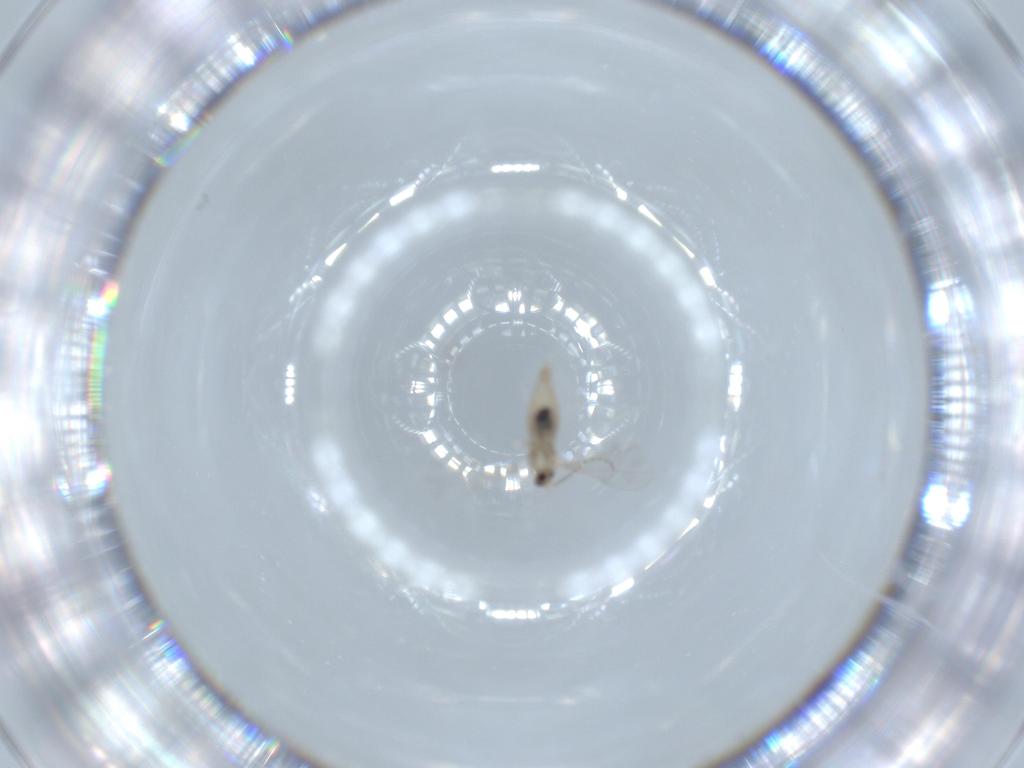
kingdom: Animalia
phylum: Arthropoda
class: Insecta
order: Diptera
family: Cecidomyiidae
